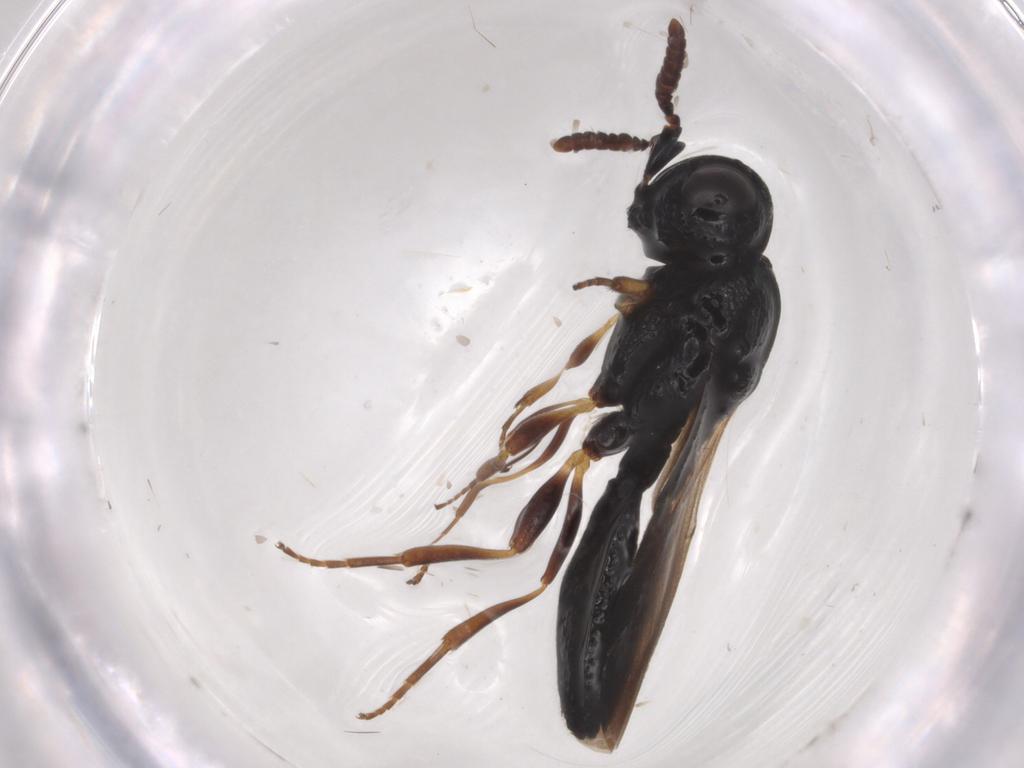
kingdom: Animalia
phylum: Arthropoda
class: Insecta
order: Hymenoptera
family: Scelionidae
